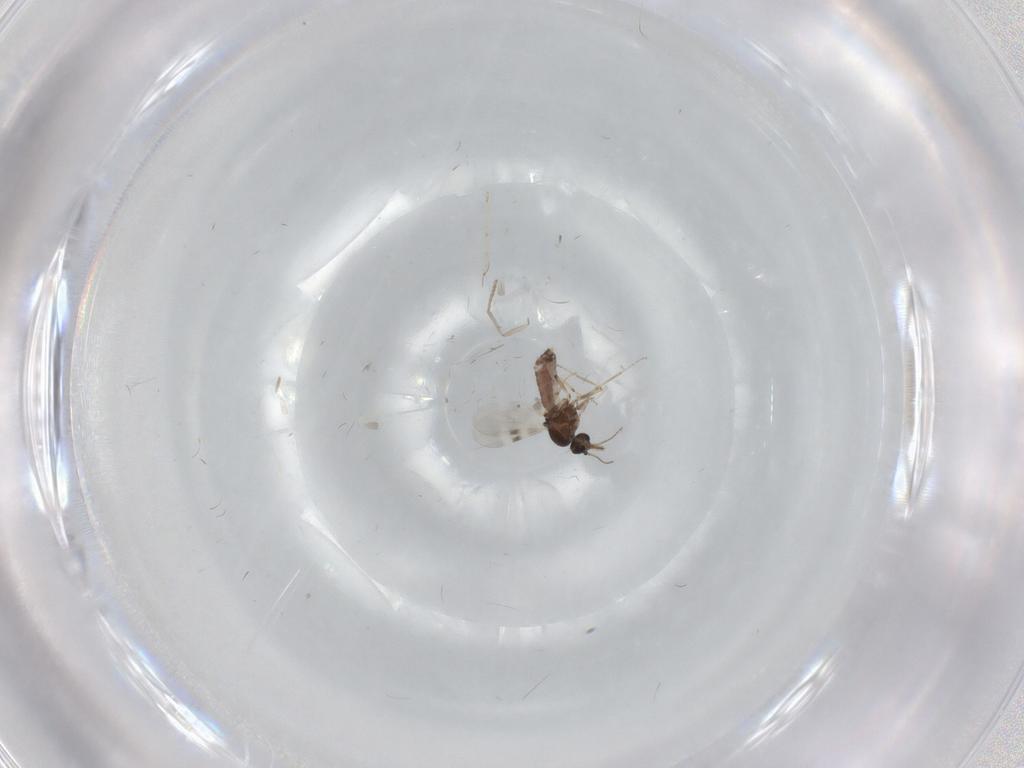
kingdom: Animalia
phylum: Arthropoda
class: Insecta
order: Diptera
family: Psychodidae
